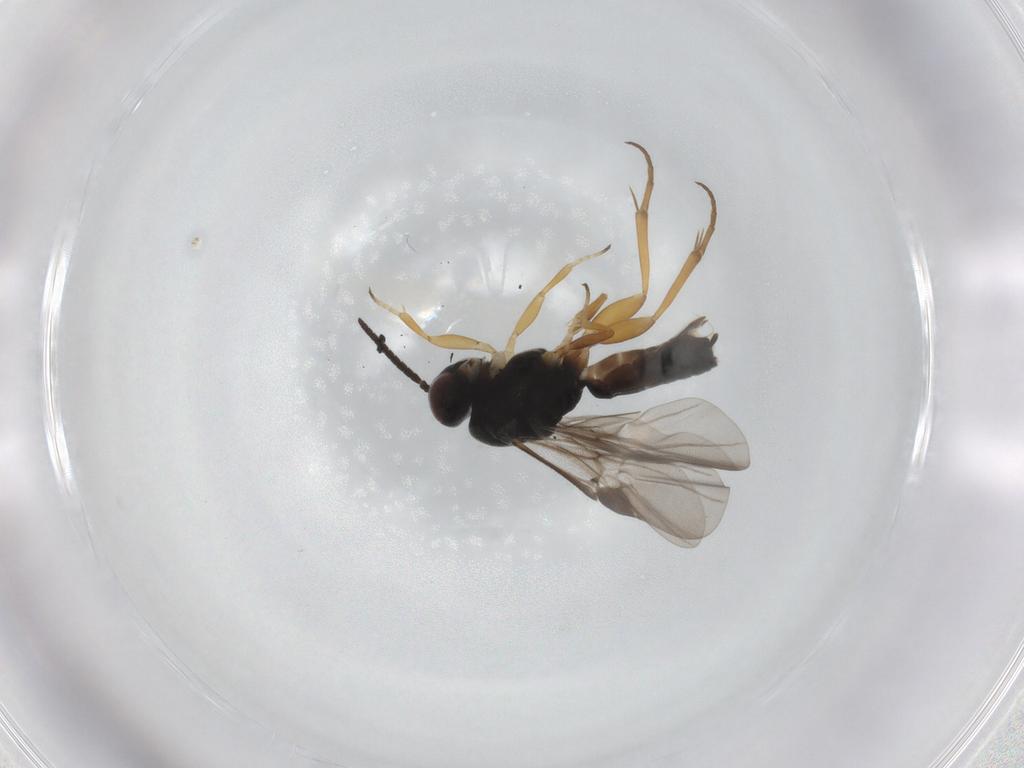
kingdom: Animalia
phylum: Arthropoda
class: Insecta
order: Hymenoptera
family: Braconidae
